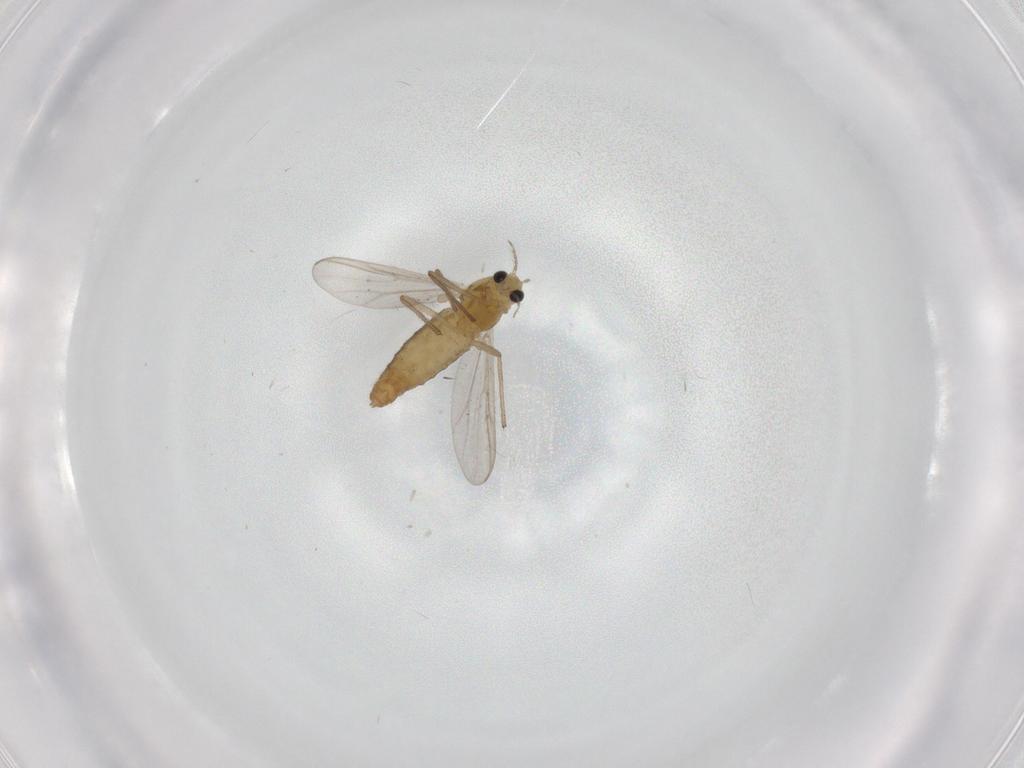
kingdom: Animalia
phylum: Arthropoda
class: Insecta
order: Diptera
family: Chironomidae
